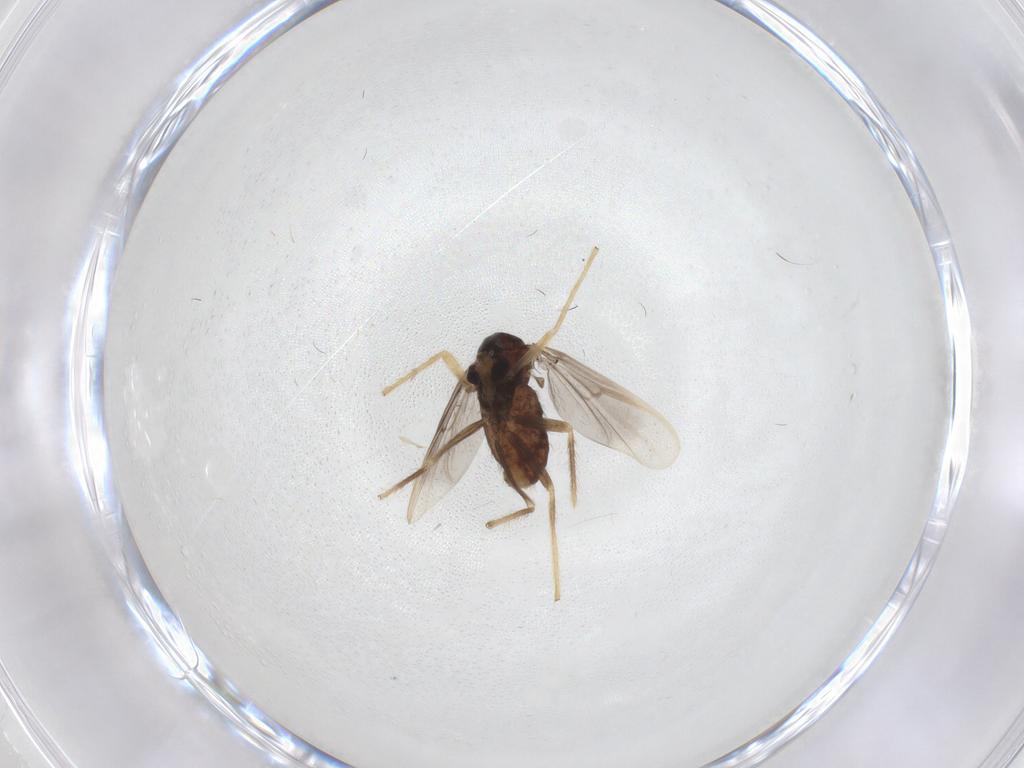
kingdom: Animalia
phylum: Arthropoda
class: Insecta
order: Diptera
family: Chironomidae
